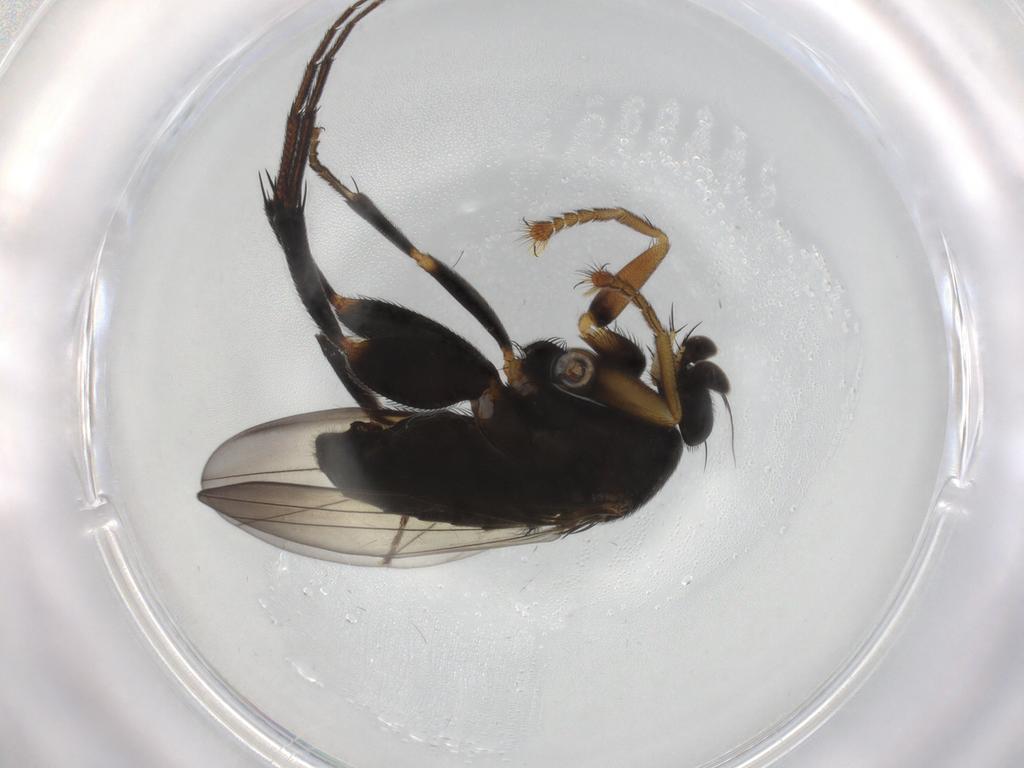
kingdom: Animalia
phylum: Arthropoda
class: Insecta
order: Diptera
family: Phoridae
